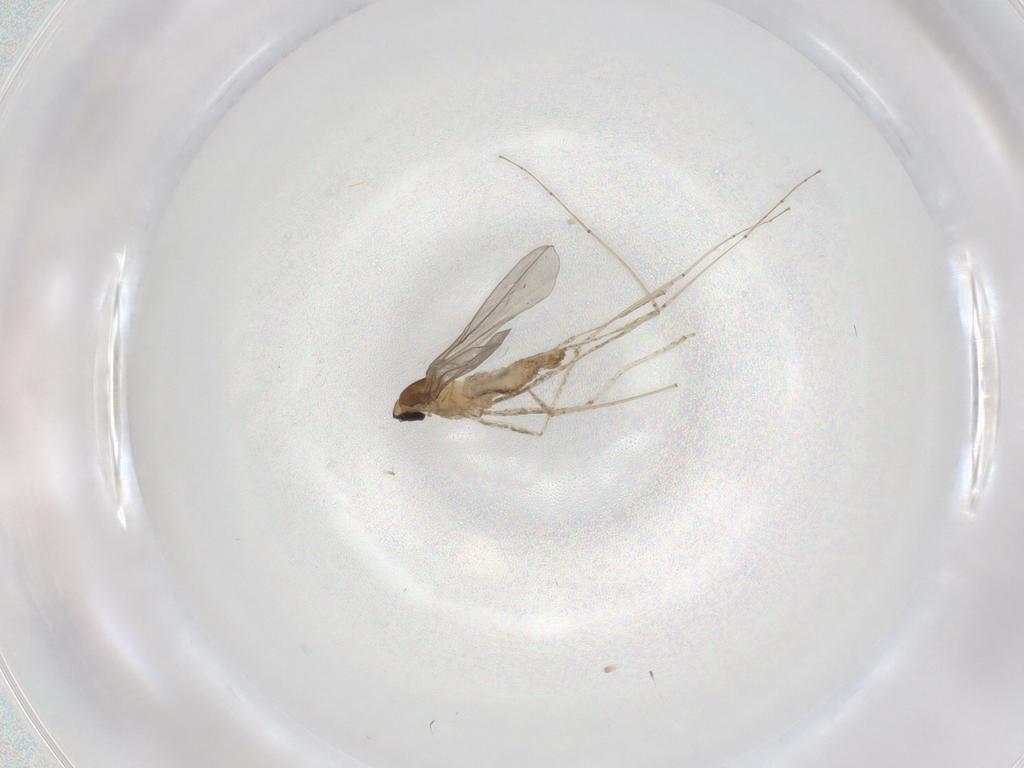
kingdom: Animalia
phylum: Arthropoda
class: Insecta
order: Diptera
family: Cecidomyiidae
